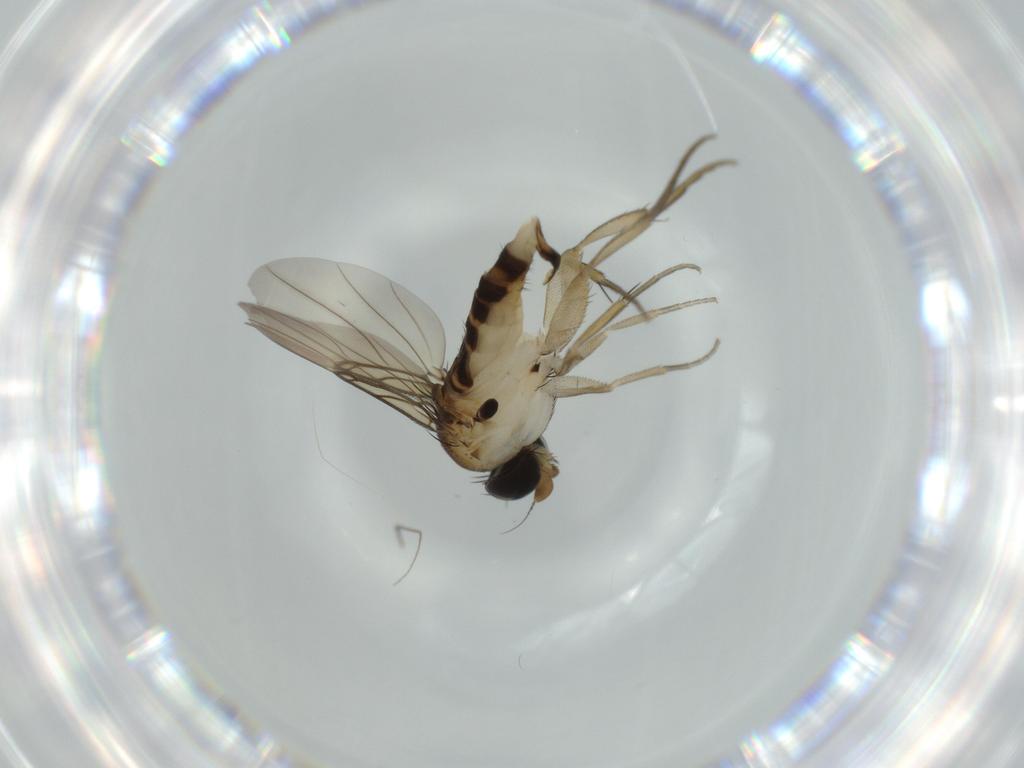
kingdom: Animalia
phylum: Arthropoda
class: Insecta
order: Diptera
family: Phoridae
